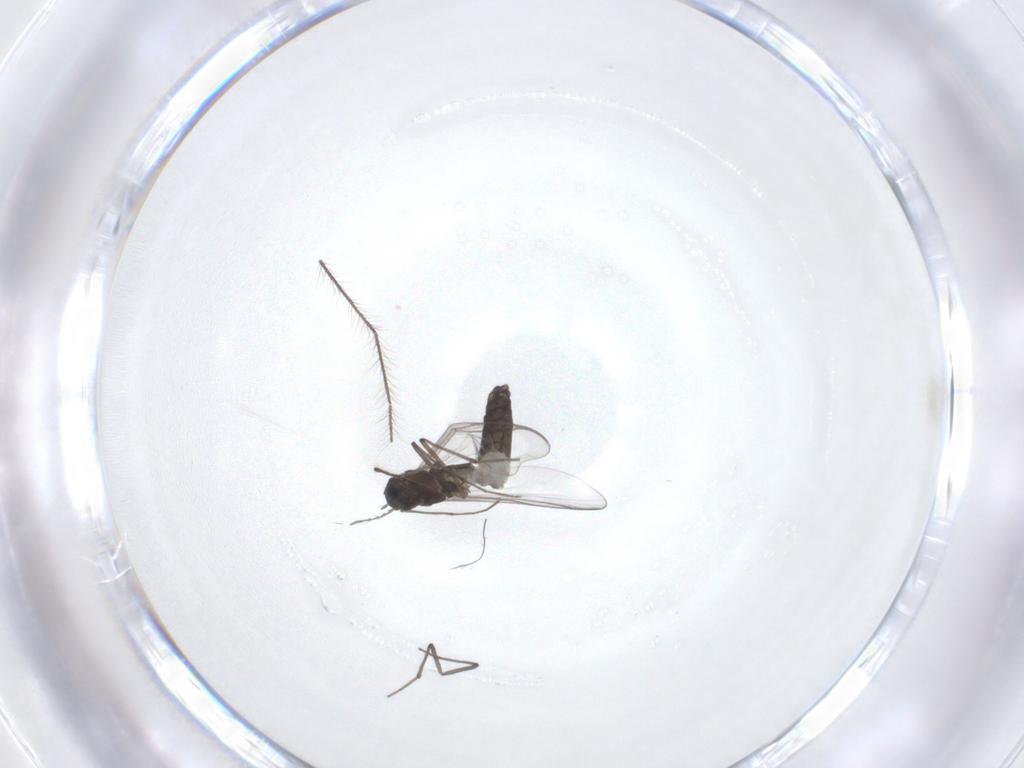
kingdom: Animalia
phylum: Arthropoda
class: Insecta
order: Diptera
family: Chironomidae
